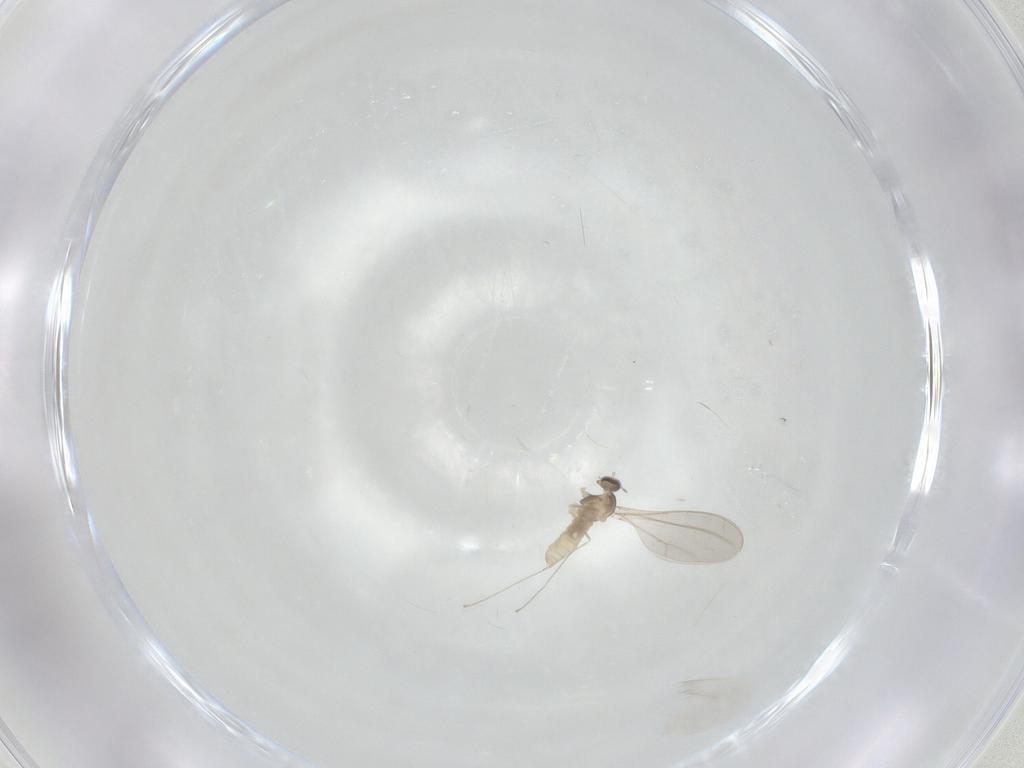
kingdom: Animalia
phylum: Arthropoda
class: Insecta
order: Diptera
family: Cecidomyiidae
